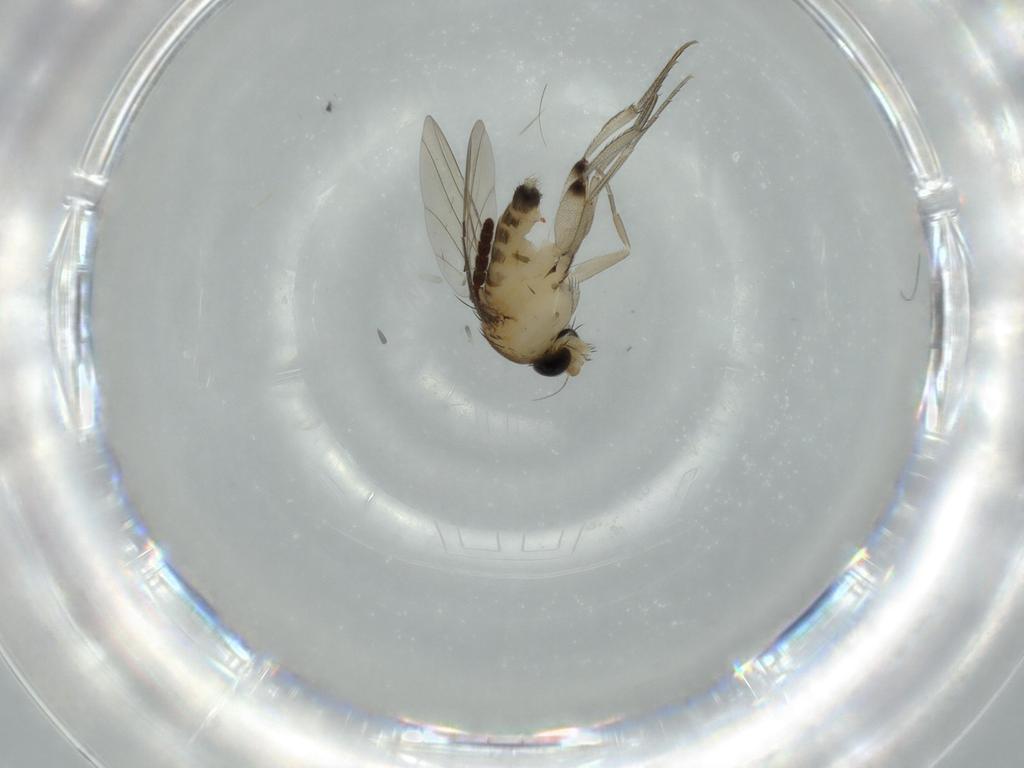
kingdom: Animalia
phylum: Arthropoda
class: Insecta
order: Diptera
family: Phoridae
